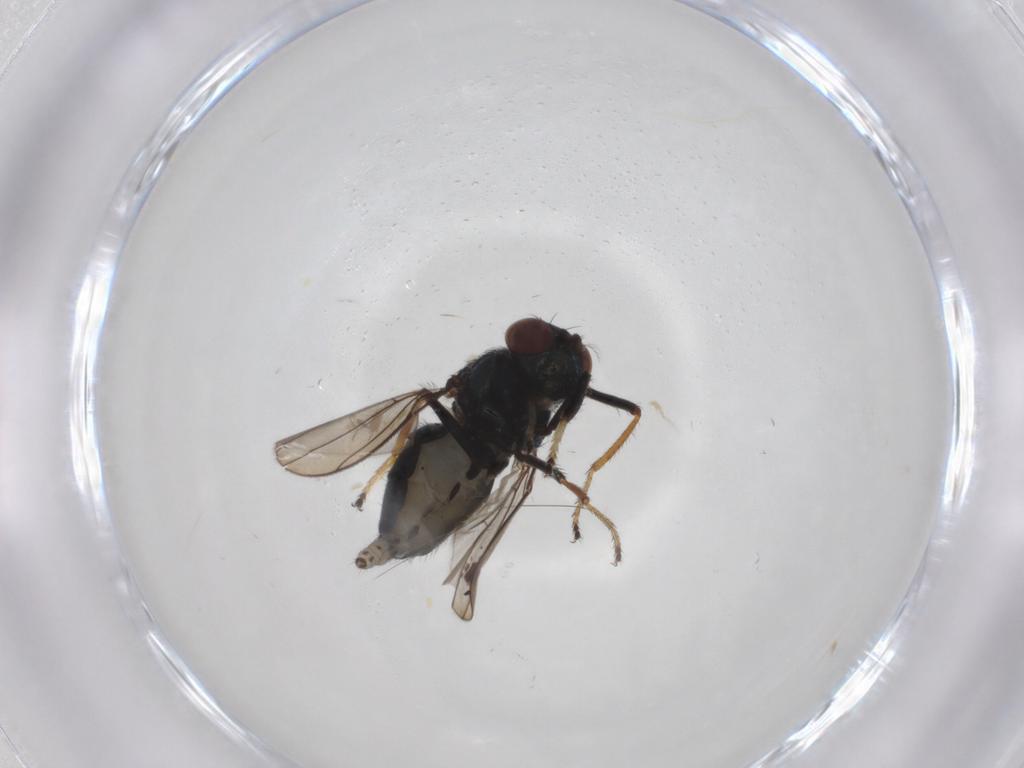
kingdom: Animalia
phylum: Arthropoda
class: Insecta
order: Diptera
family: Ephydridae
